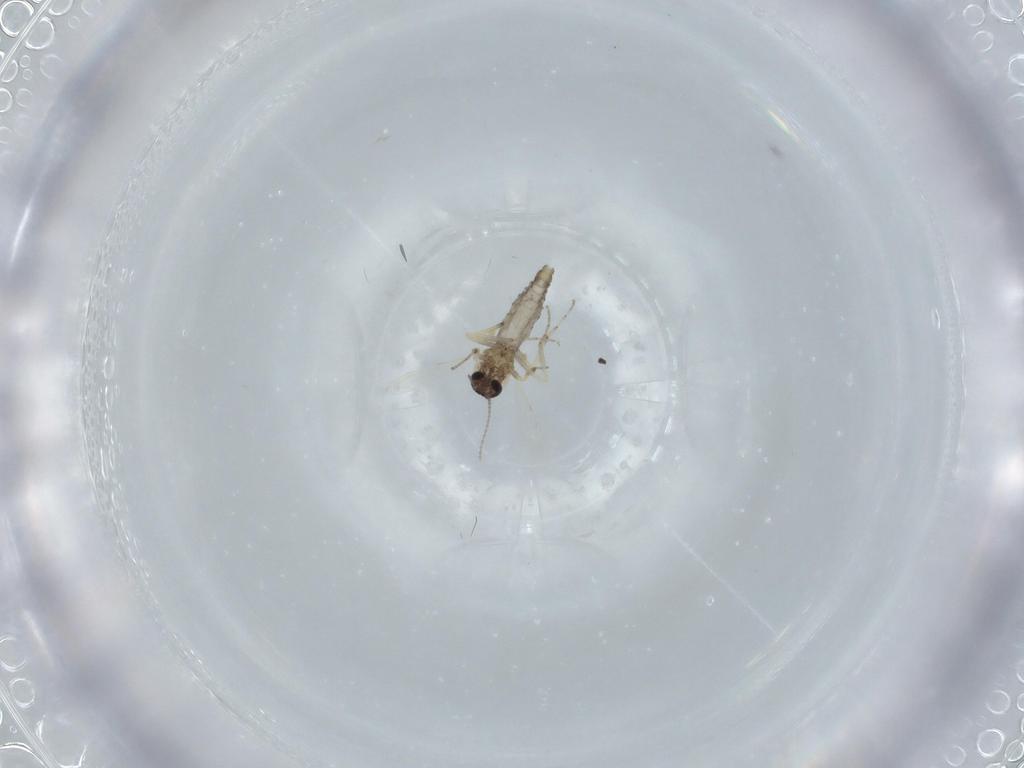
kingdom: Animalia
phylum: Arthropoda
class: Insecta
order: Diptera
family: Ceratopogonidae
